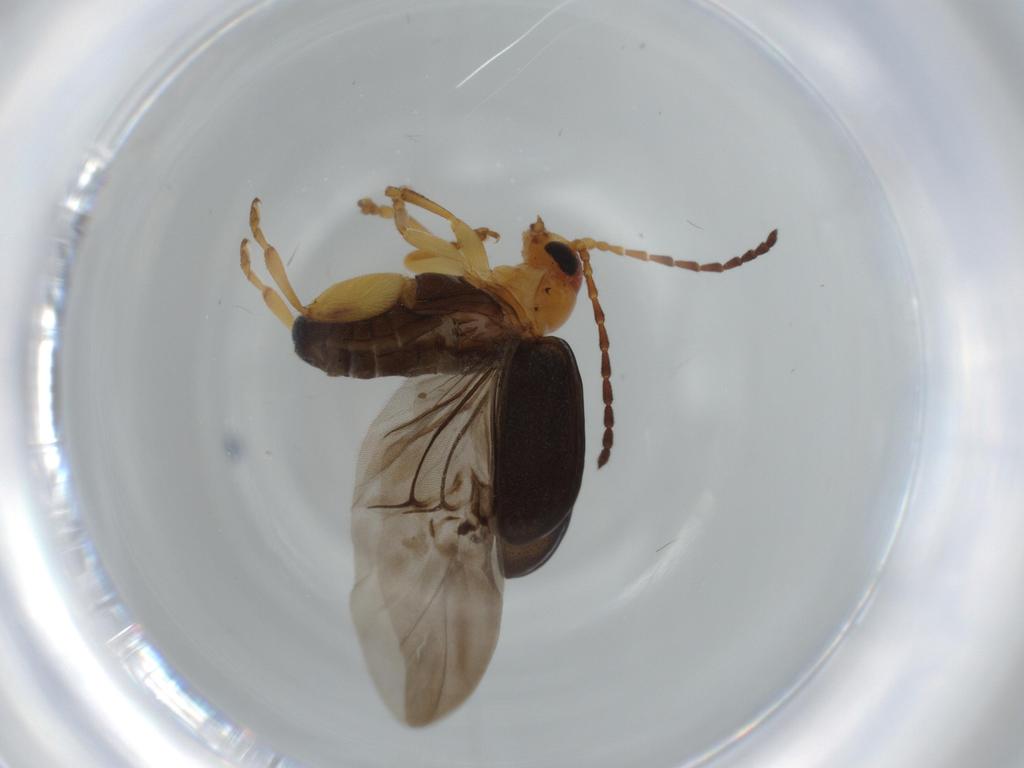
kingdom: Animalia
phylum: Arthropoda
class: Insecta
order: Coleoptera
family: Chrysomelidae
